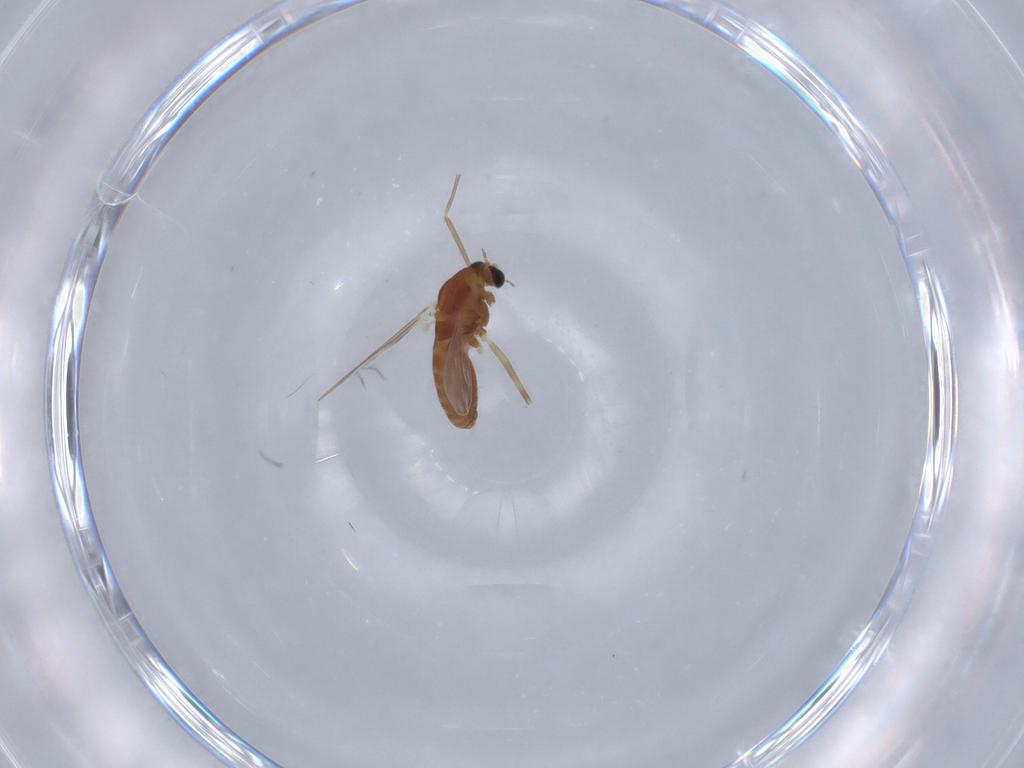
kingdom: Animalia
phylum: Arthropoda
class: Insecta
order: Diptera
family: Chironomidae
